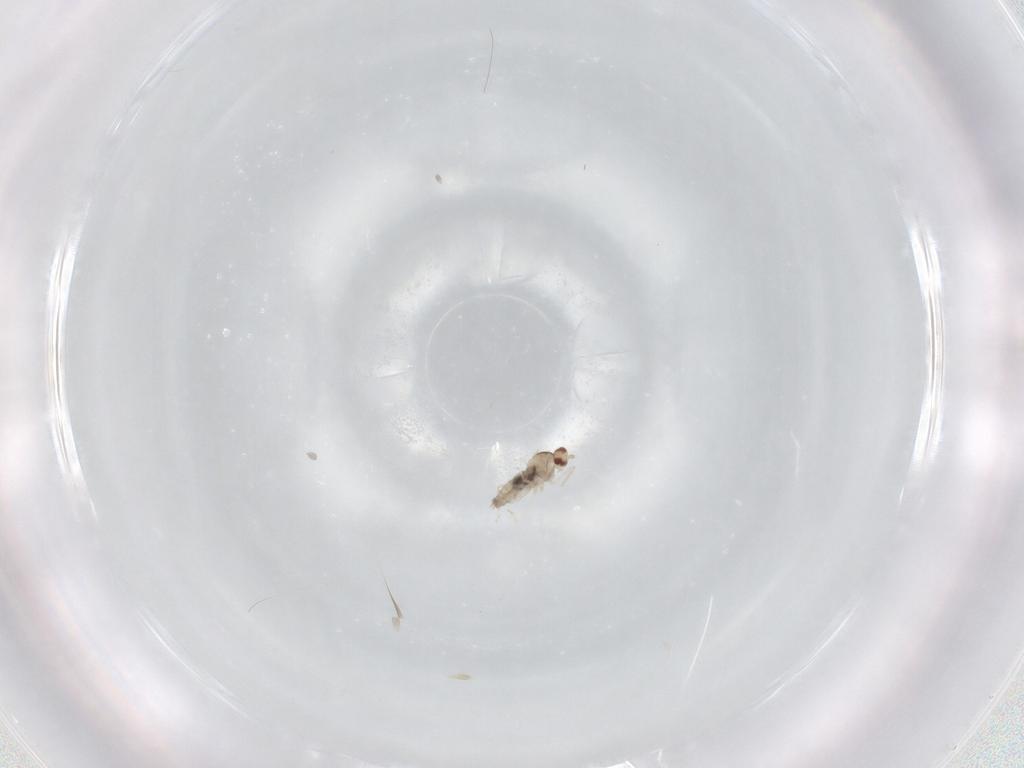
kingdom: Animalia
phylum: Arthropoda
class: Insecta
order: Diptera
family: Cecidomyiidae
